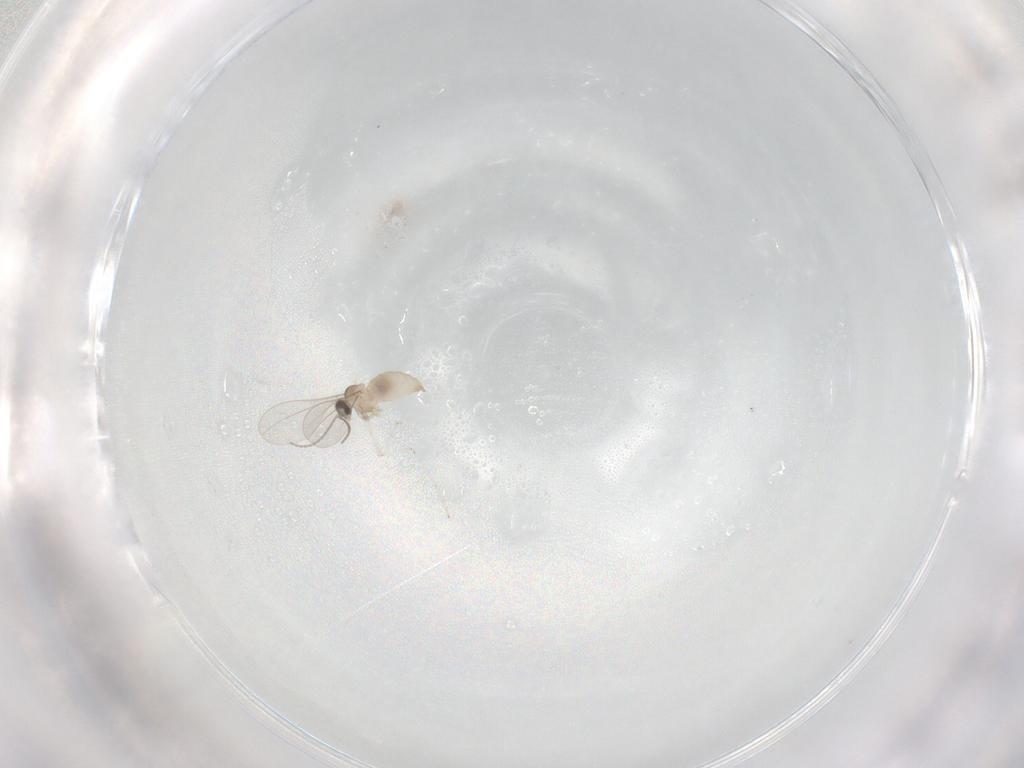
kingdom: Animalia
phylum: Arthropoda
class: Insecta
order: Diptera
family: Cecidomyiidae
